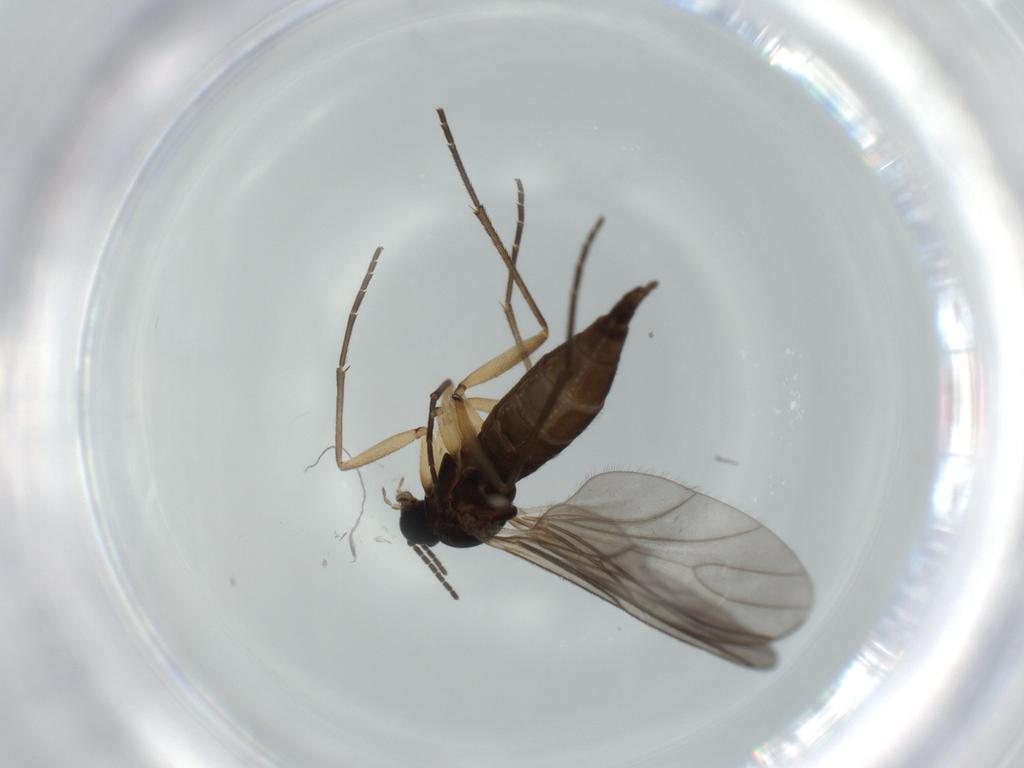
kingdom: Animalia
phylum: Arthropoda
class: Insecta
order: Diptera
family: Sciaridae
